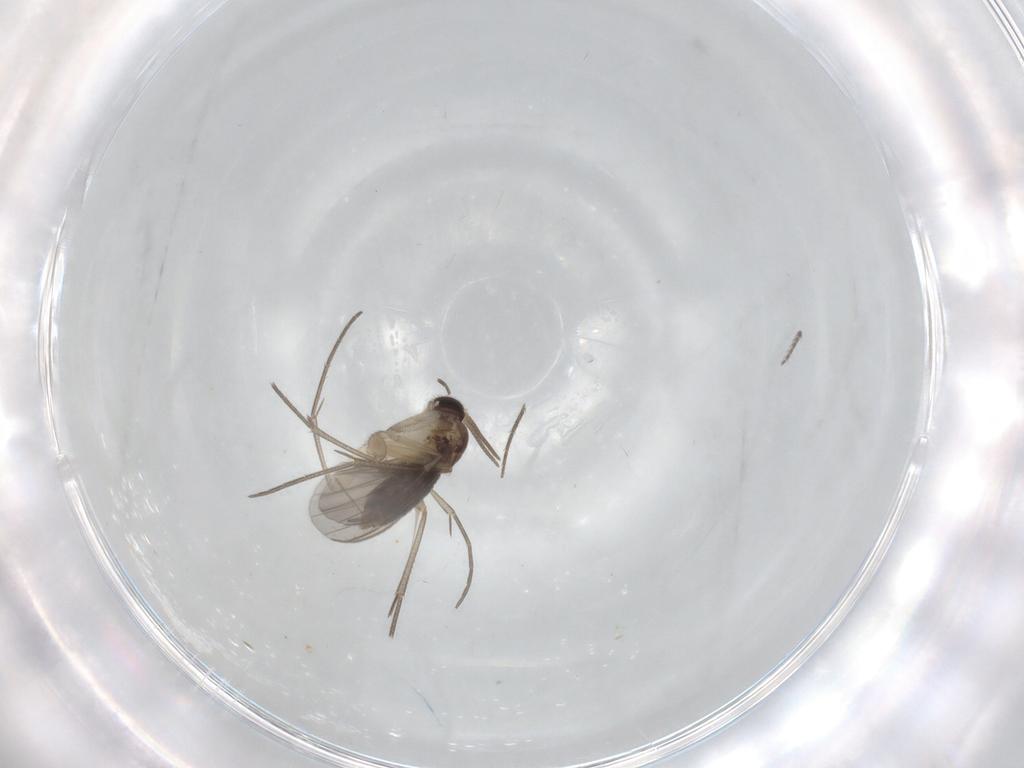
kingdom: Animalia
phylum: Arthropoda
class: Insecta
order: Diptera
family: Mycetophilidae
